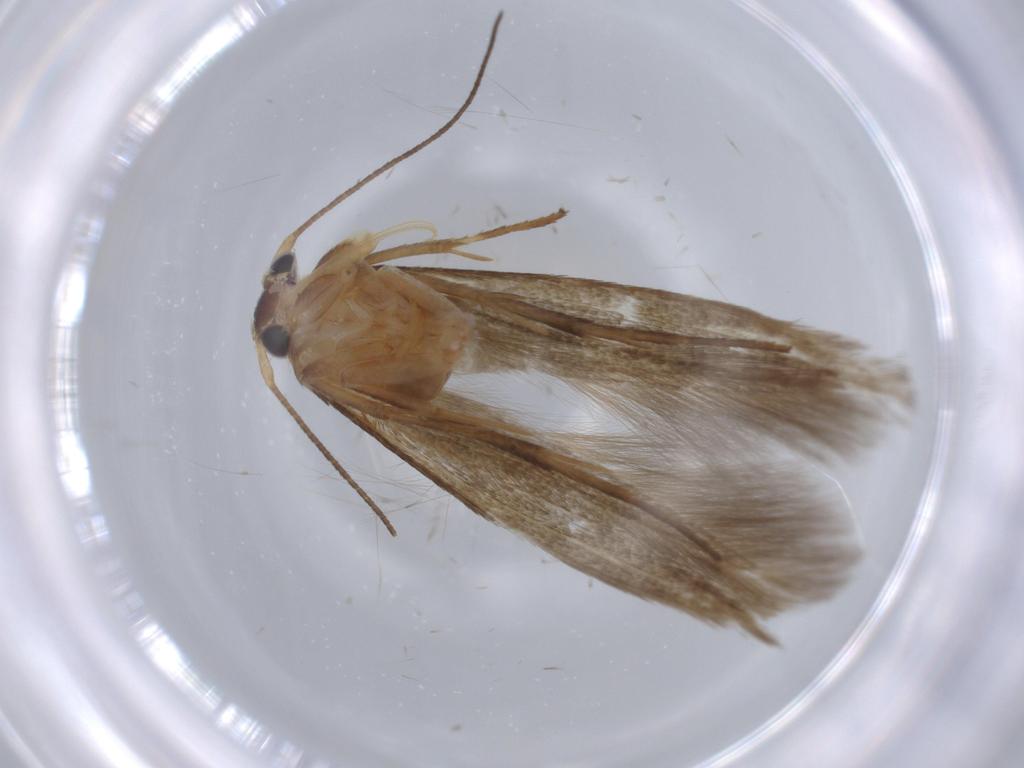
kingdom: Animalia
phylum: Arthropoda
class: Insecta
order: Lepidoptera
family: Stathmopodidae
